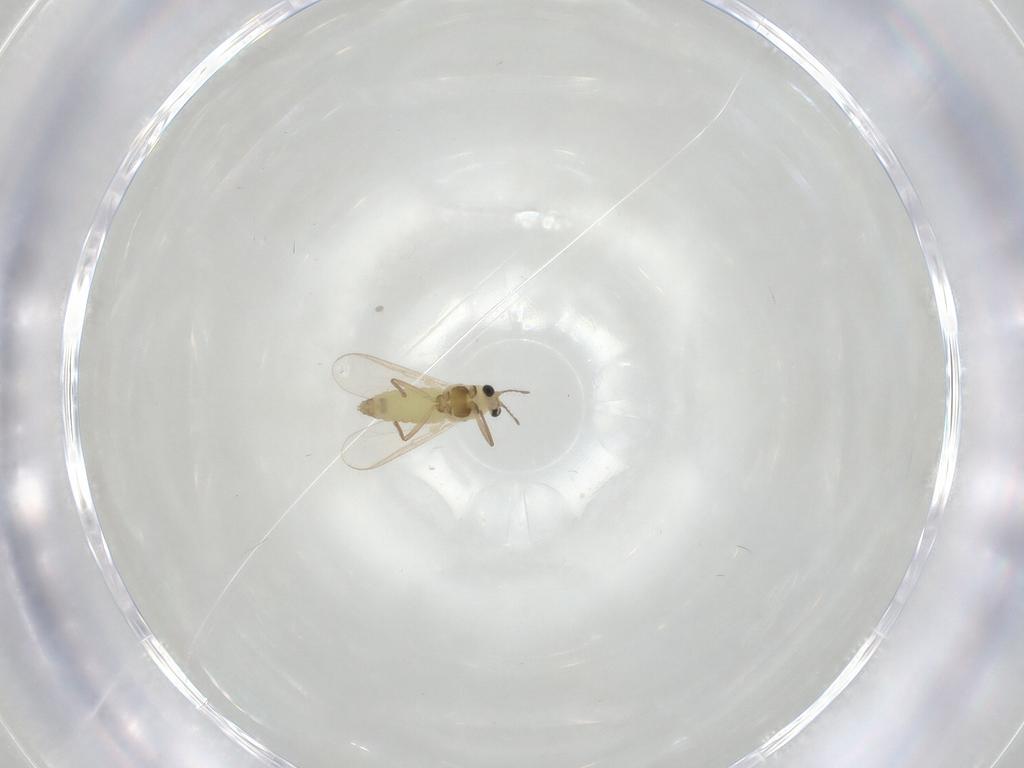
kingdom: Animalia
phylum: Arthropoda
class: Insecta
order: Diptera
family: Chironomidae
